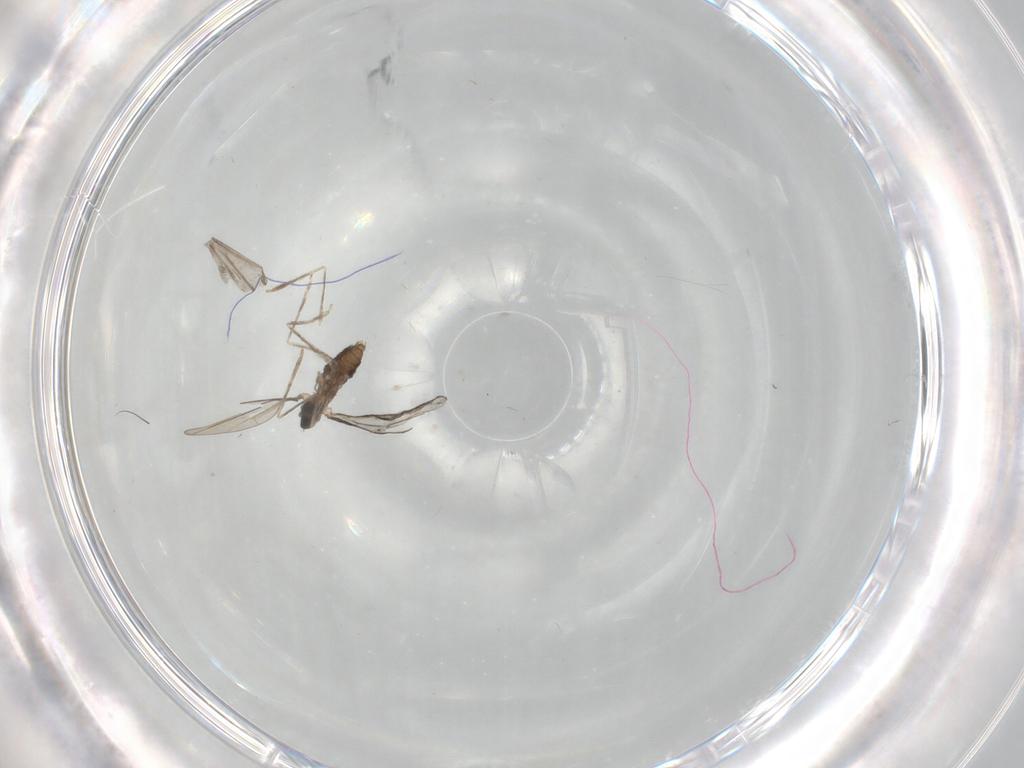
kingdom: Animalia
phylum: Arthropoda
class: Insecta
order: Diptera
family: Cecidomyiidae
